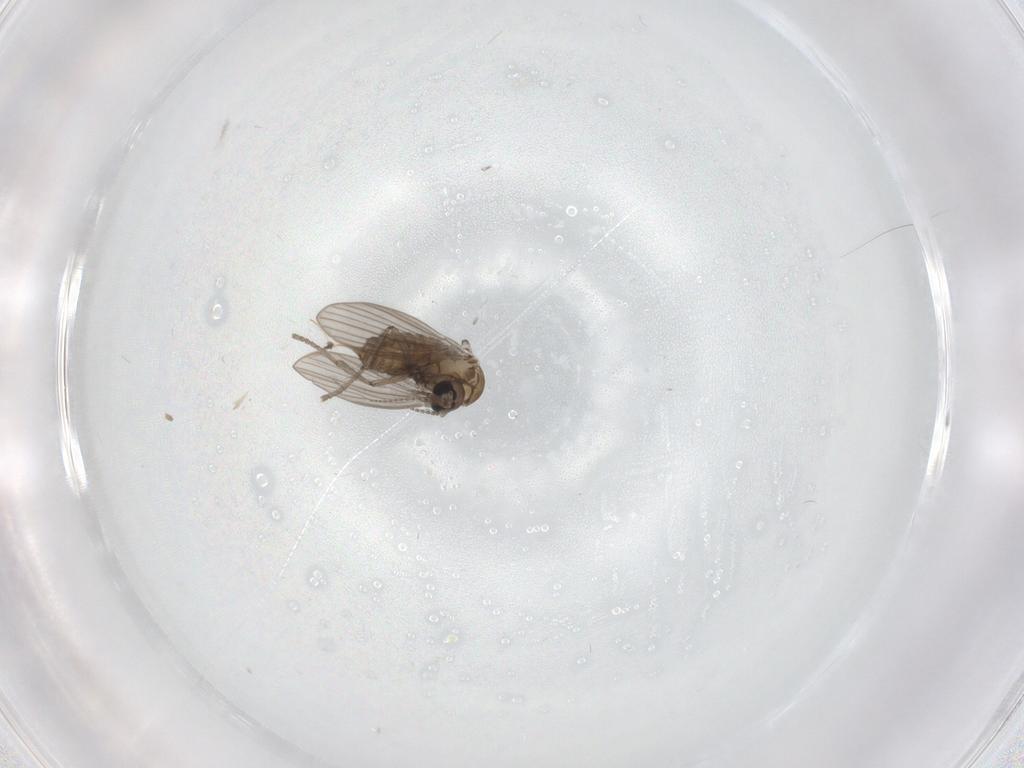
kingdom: Animalia
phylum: Arthropoda
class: Insecta
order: Diptera
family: Psychodidae
